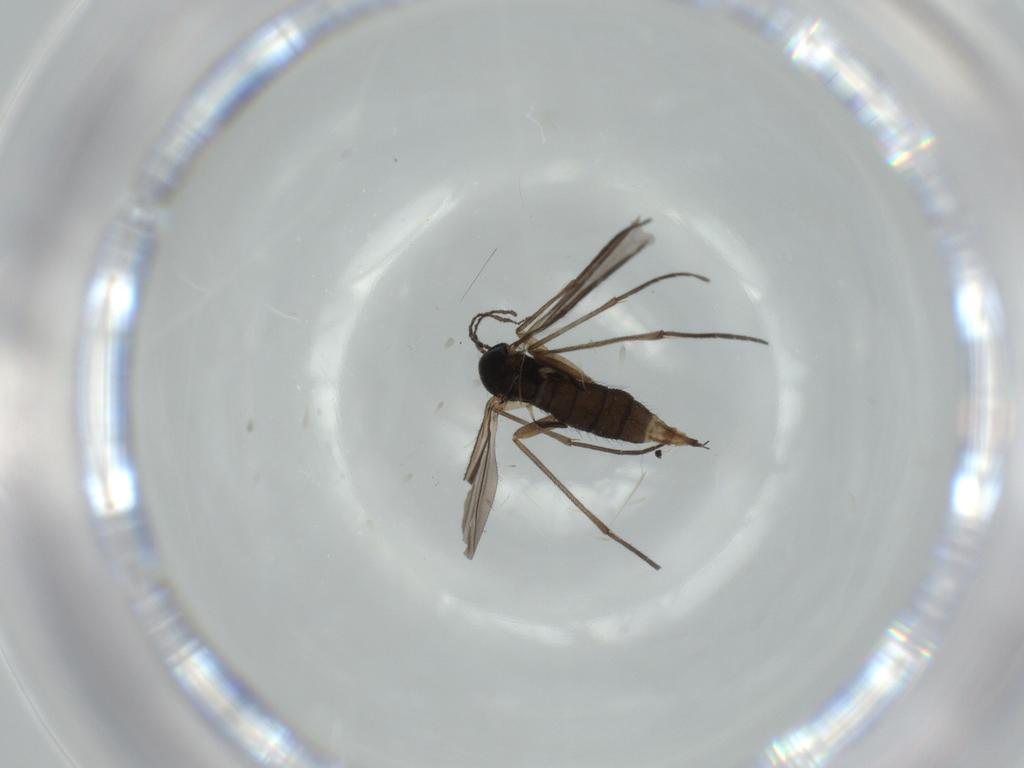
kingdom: Animalia
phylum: Arthropoda
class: Insecta
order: Diptera
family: Sciaridae
